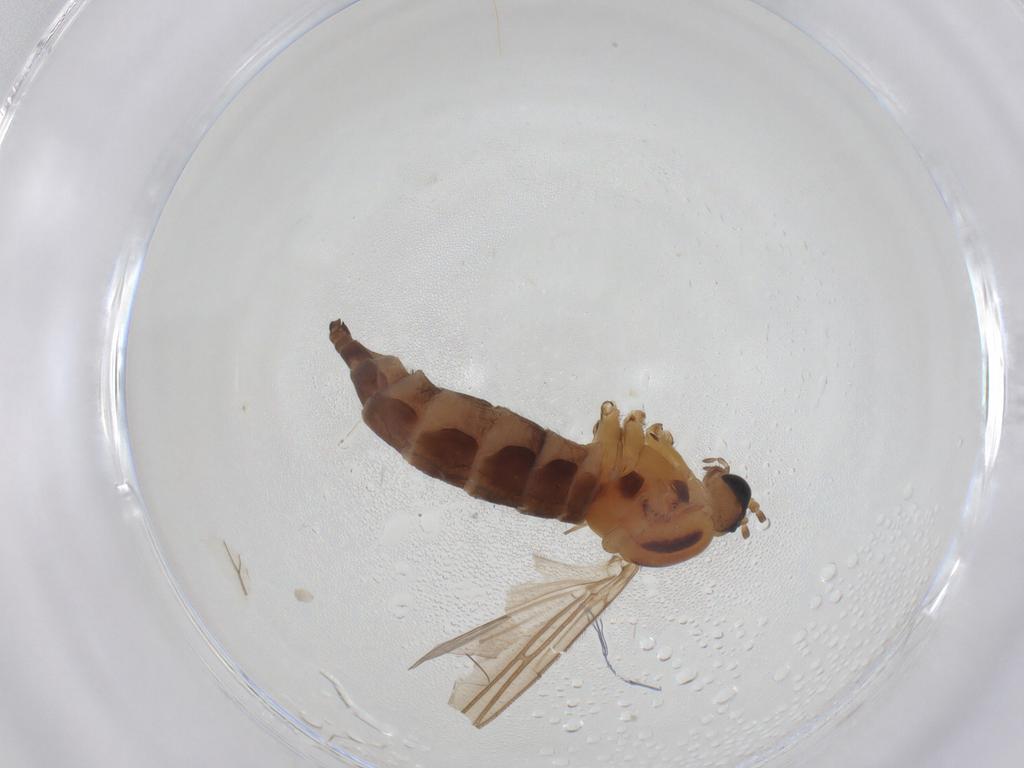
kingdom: Animalia
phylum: Arthropoda
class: Insecta
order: Diptera
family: Sciaridae
